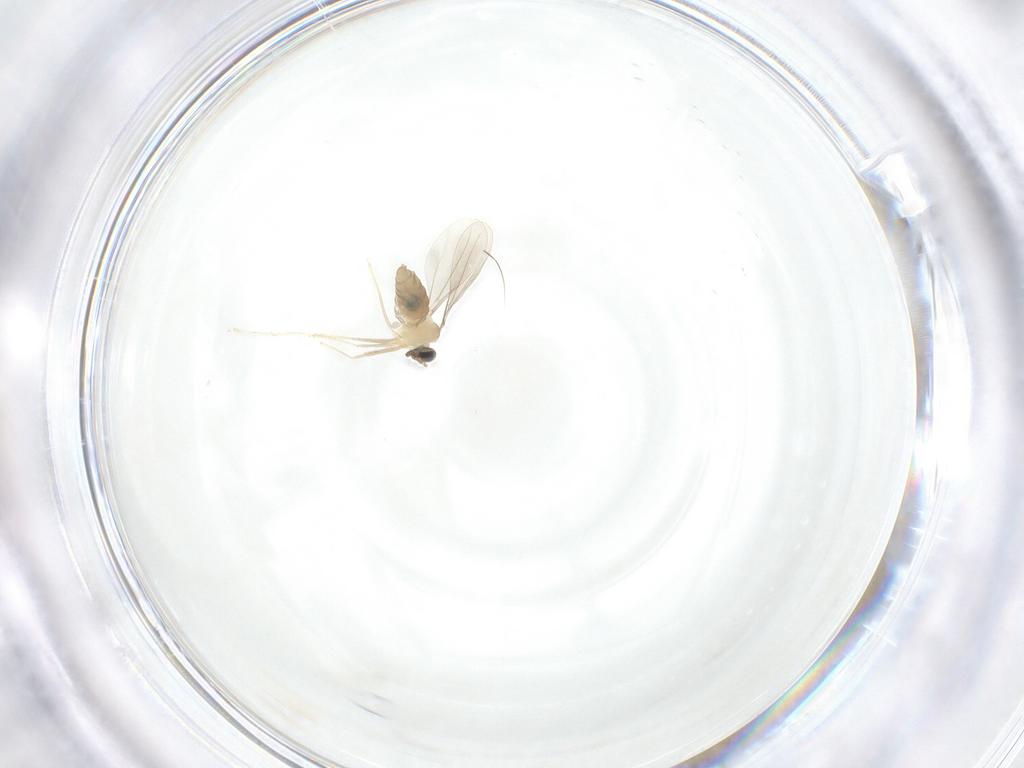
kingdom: Animalia
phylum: Arthropoda
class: Insecta
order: Diptera
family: Cecidomyiidae
